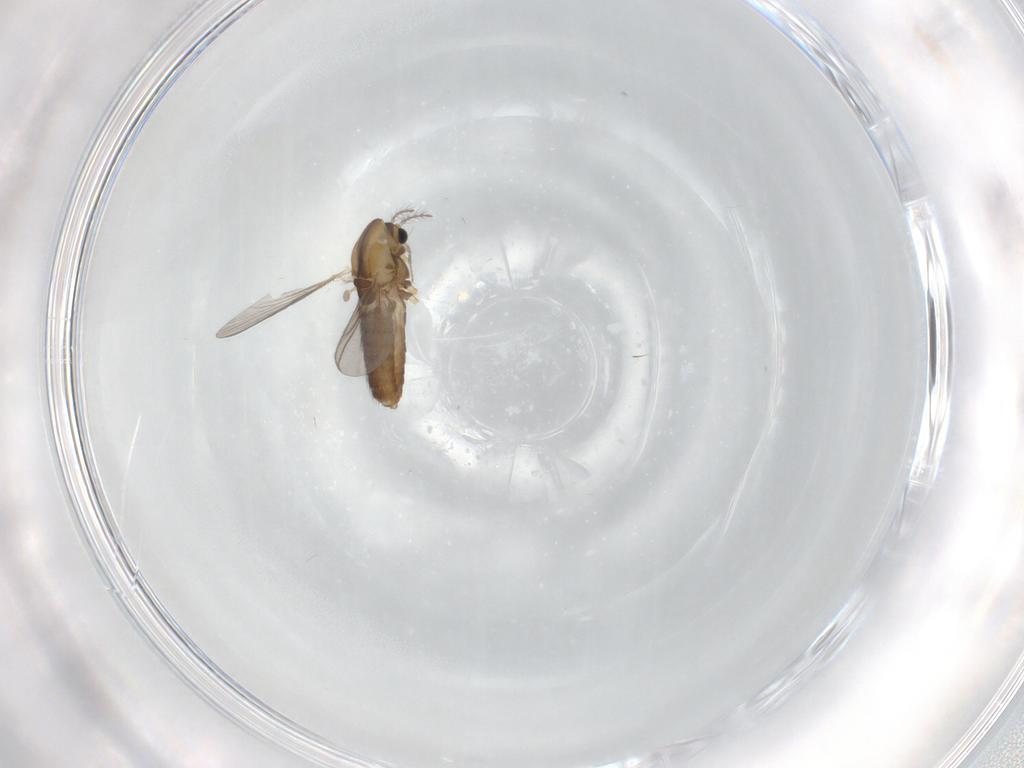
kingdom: Animalia
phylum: Arthropoda
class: Insecta
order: Diptera
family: Chironomidae
